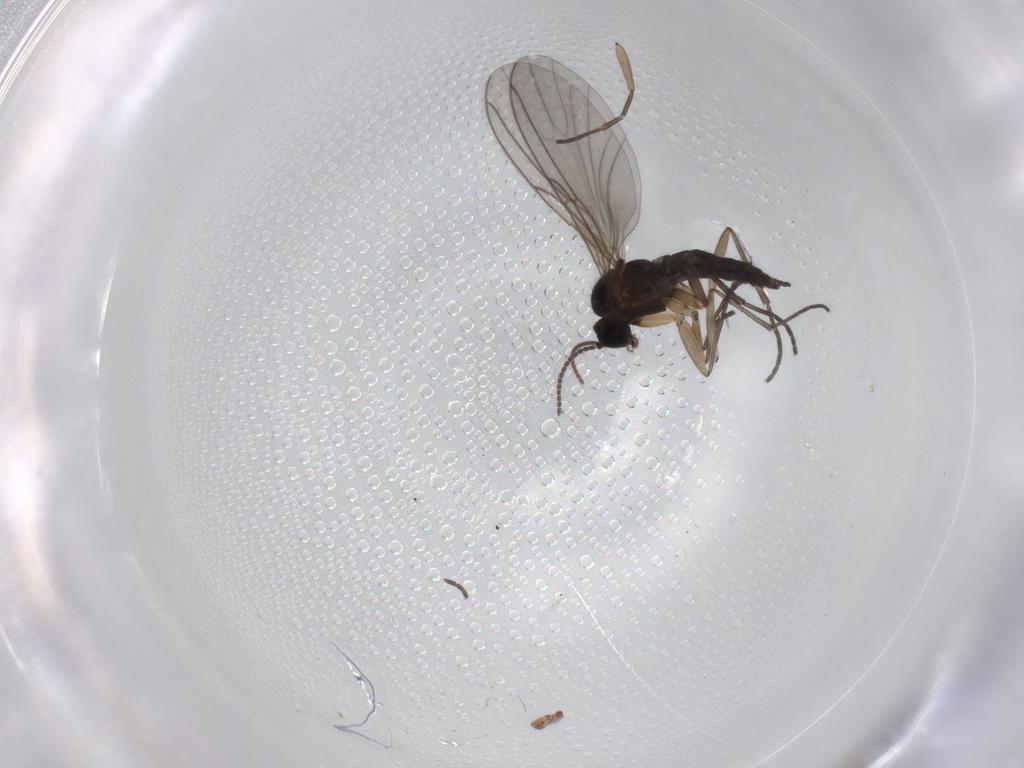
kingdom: Animalia
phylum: Arthropoda
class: Insecta
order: Diptera
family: Sciaridae
